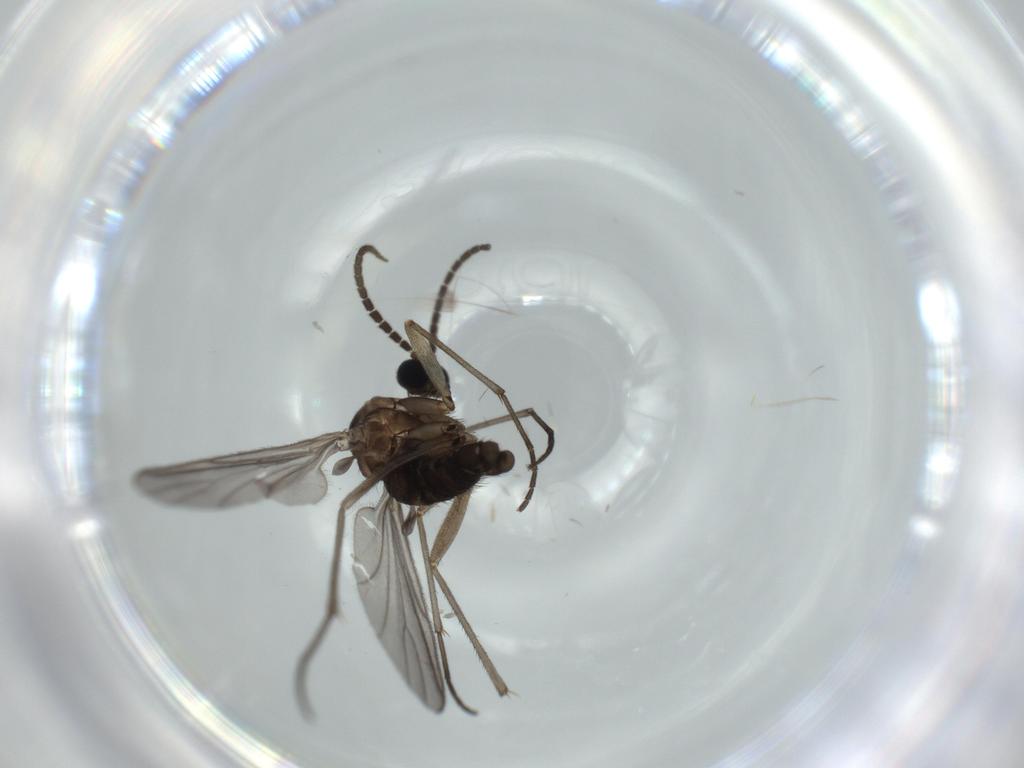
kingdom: Animalia
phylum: Arthropoda
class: Insecta
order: Diptera
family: Sciaridae
